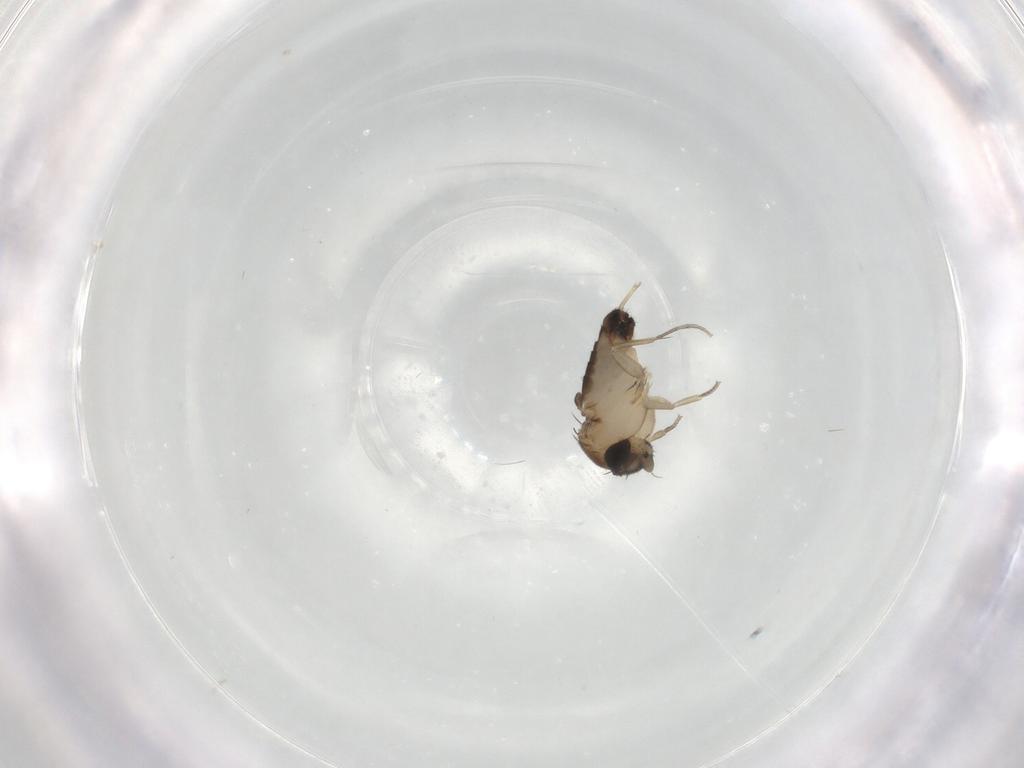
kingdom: Animalia
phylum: Arthropoda
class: Insecta
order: Diptera
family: Phoridae
